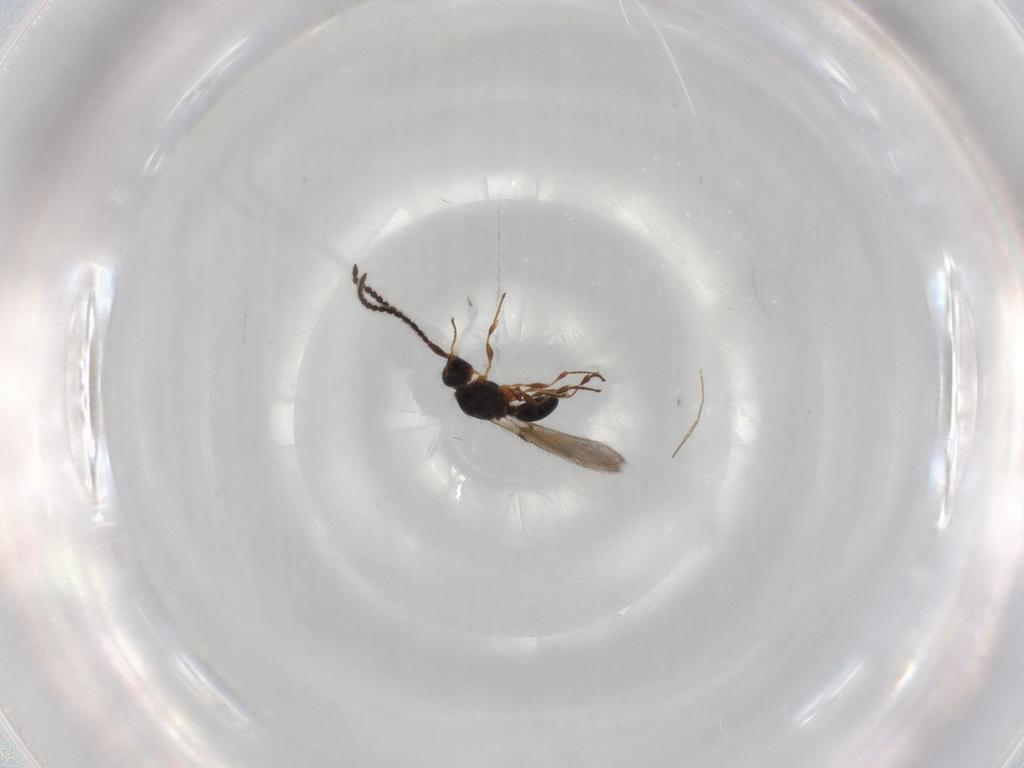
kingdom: Animalia
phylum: Arthropoda
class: Insecta
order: Hymenoptera
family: Diapriidae
